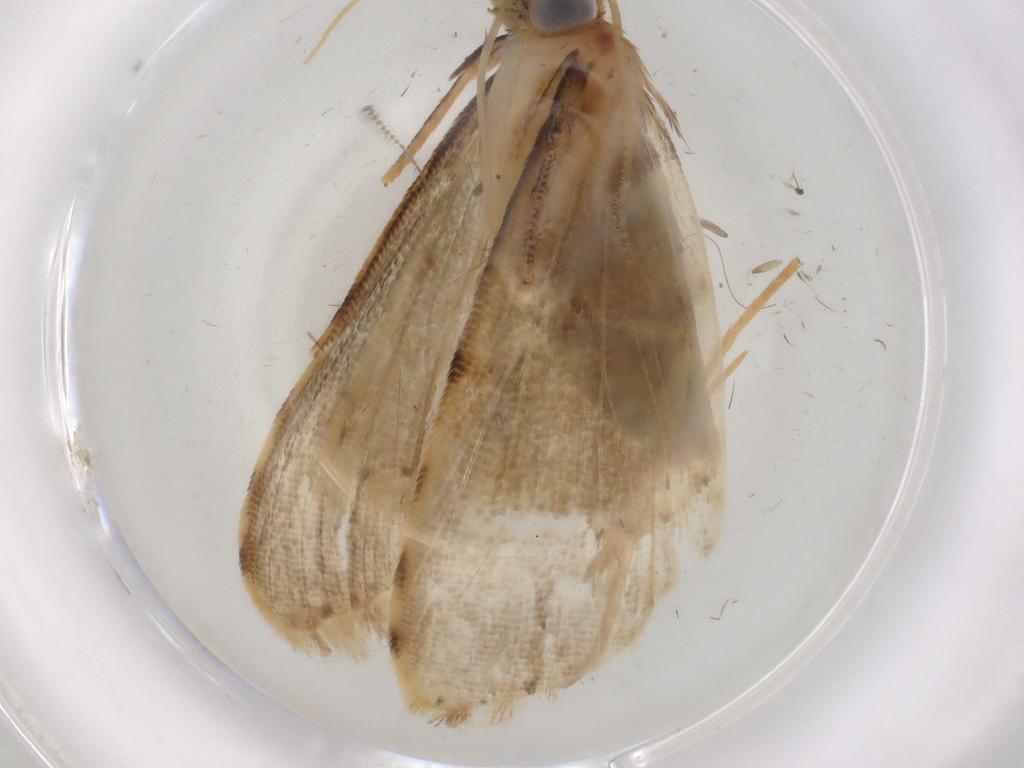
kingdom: Animalia
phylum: Arthropoda
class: Insecta
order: Lepidoptera
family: Erebidae
